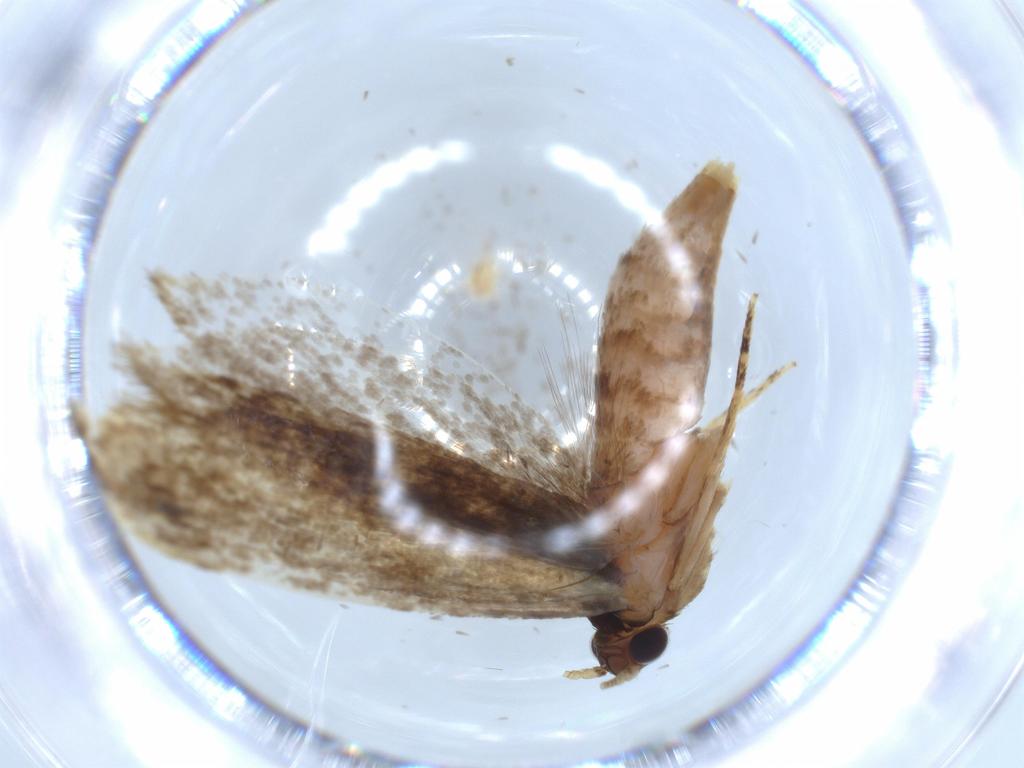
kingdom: Animalia
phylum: Arthropoda
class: Insecta
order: Lepidoptera
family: Tineidae
